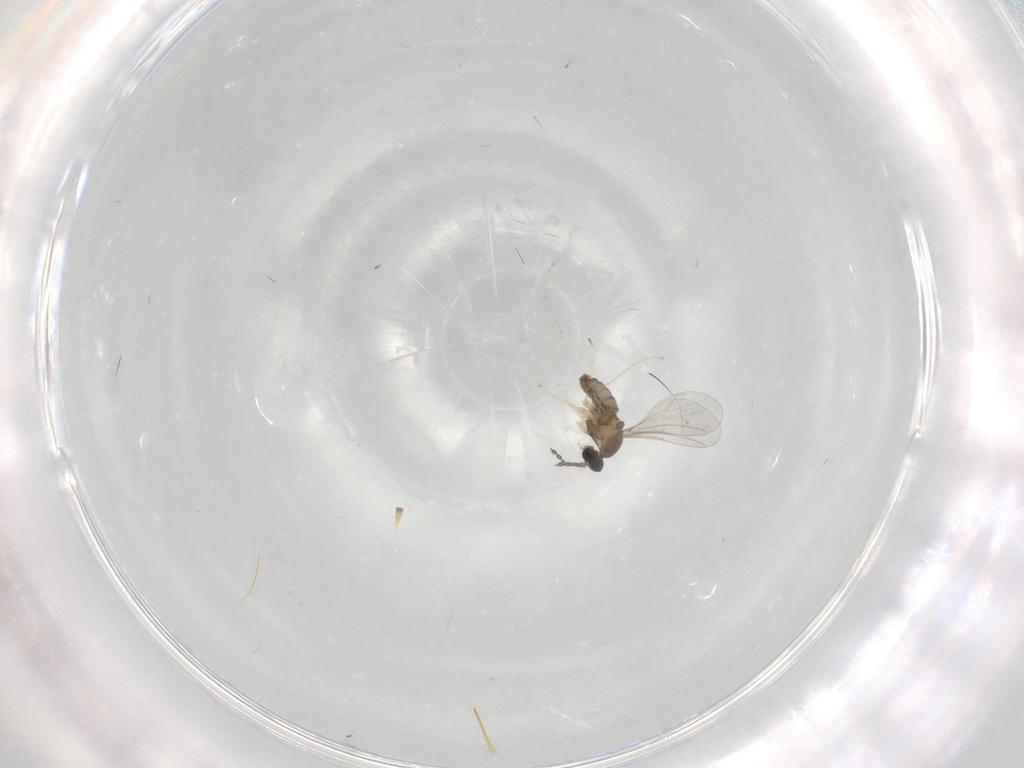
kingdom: Animalia
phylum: Arthropoda
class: Insecta
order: Diptera
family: Cecidomyiidae
